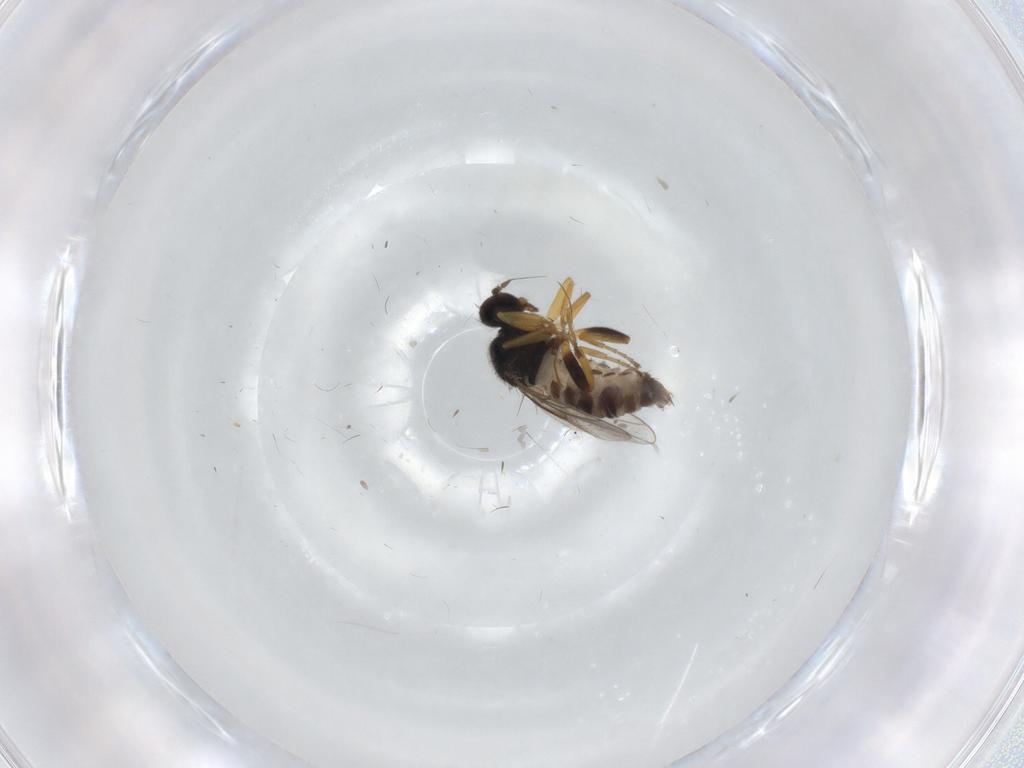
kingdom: Animalia
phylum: Arthropoda
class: Insecta
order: Diptera
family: Hybotidae
